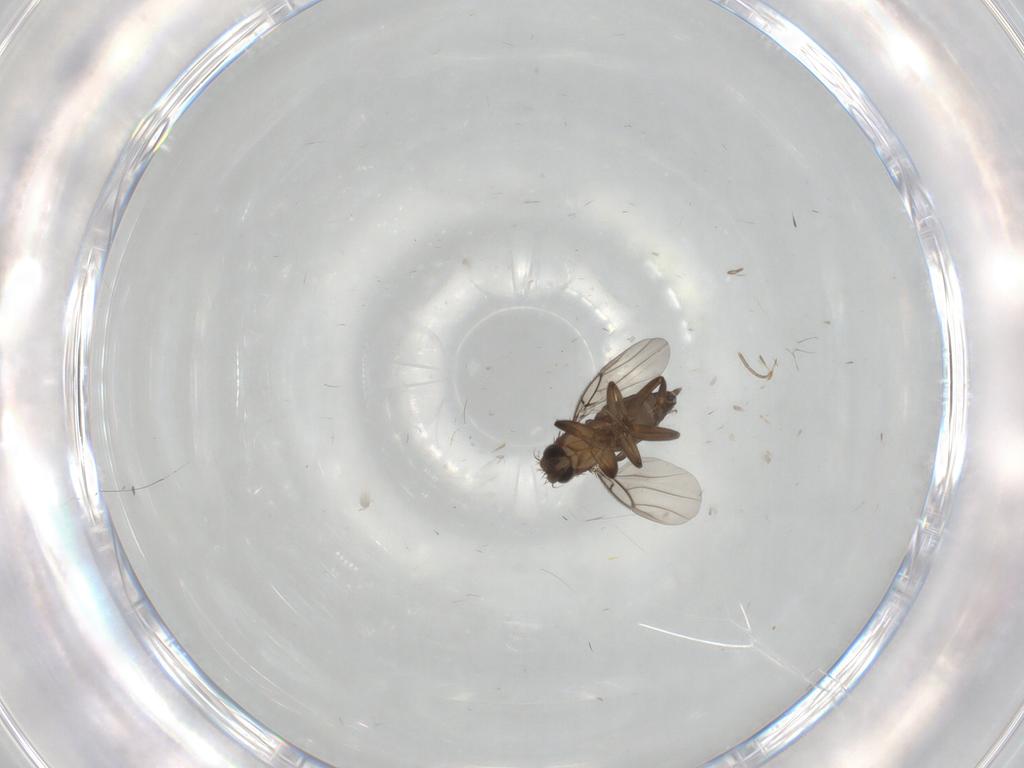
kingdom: Animalia
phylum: Arthropoda
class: Insecta
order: Diptera
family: Phoridae
